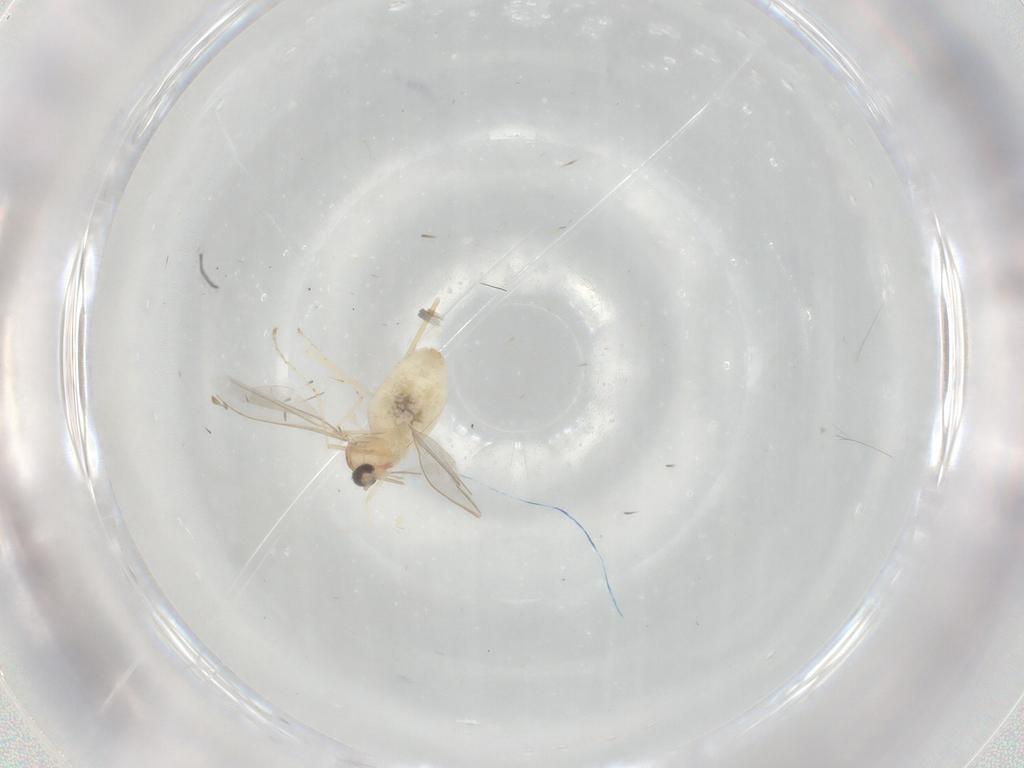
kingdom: Animalia
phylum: Arthropoda
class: Insecta
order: Diptera
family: Cecidomyiidae
